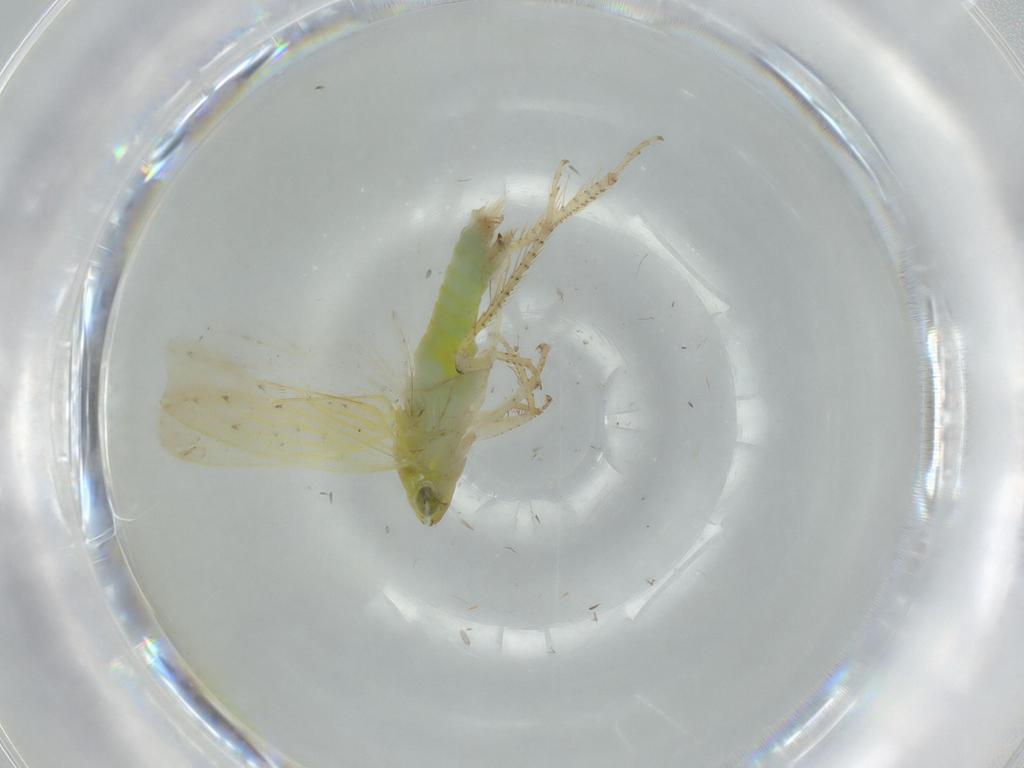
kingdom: Animalia
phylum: Arthropoda
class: Insecta
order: Hemiptera
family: Cicadellidae
